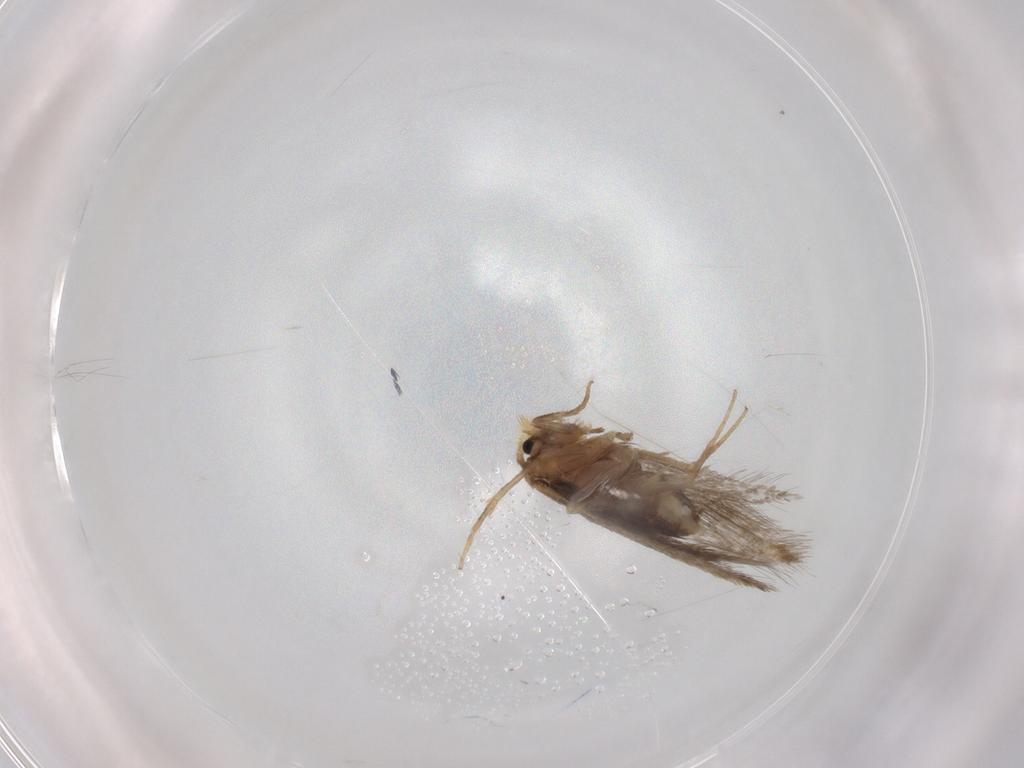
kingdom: Animalia
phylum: Arthropoda
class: Insecta
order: Lepidoptera
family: Nepticulidae
